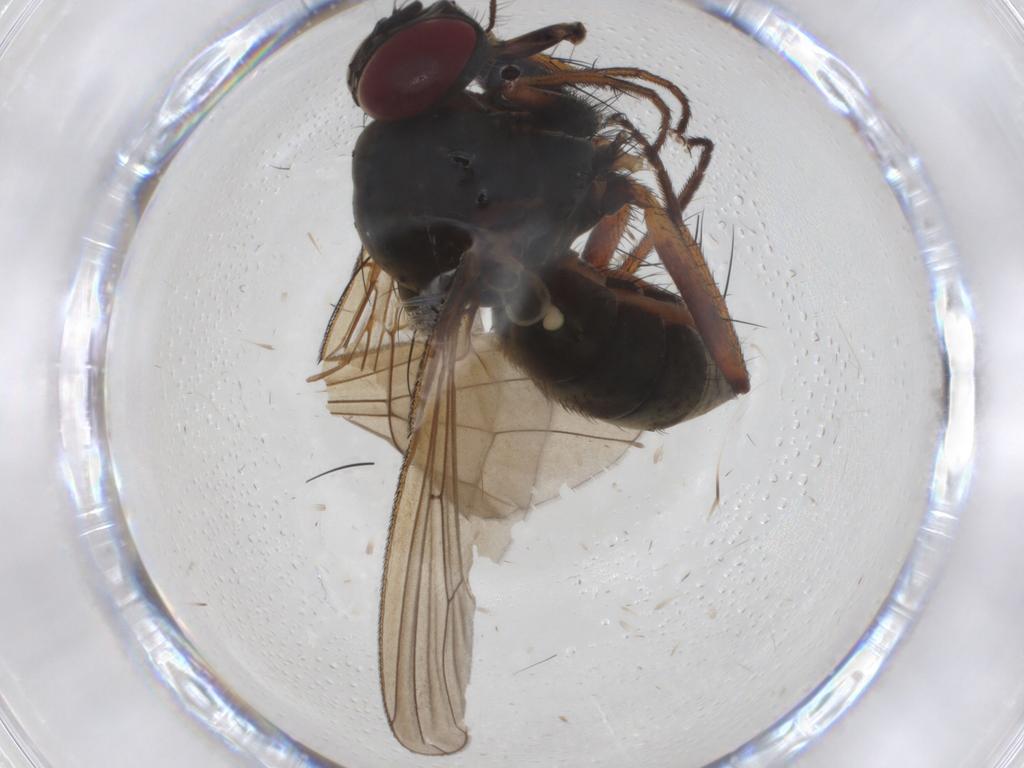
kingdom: Animalia
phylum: Arthropoda
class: Insecta
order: Diptera
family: Muscidae
